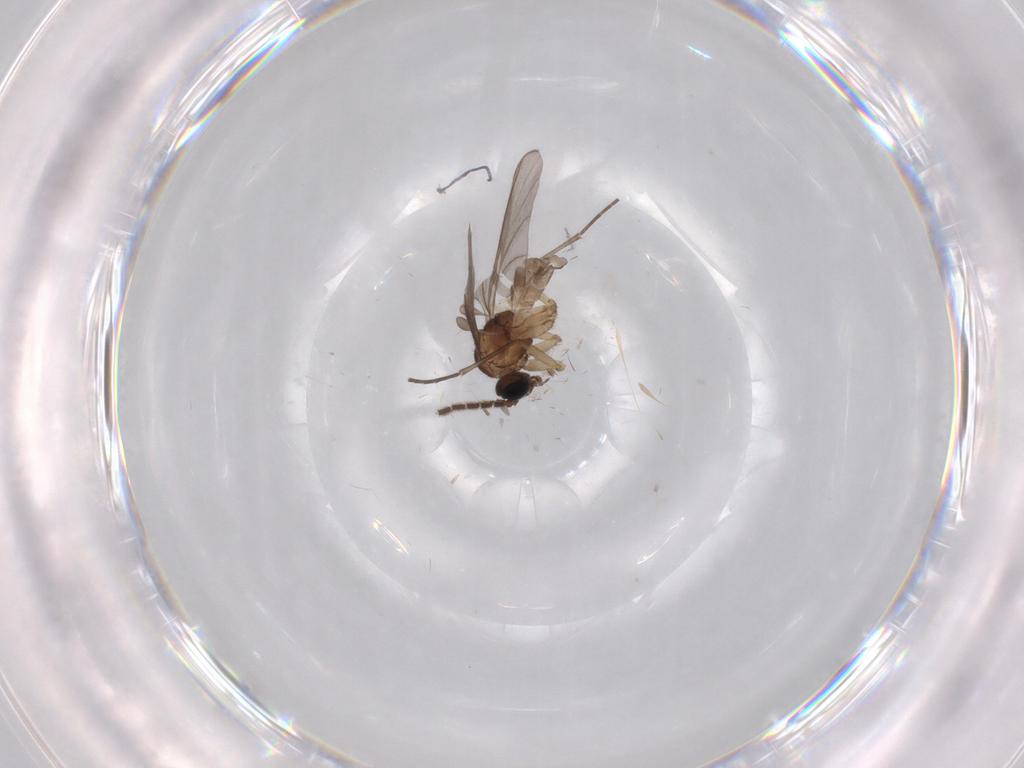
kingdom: Animalia
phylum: Arthropoda
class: Insecta
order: Diptera
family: Sciaridae
